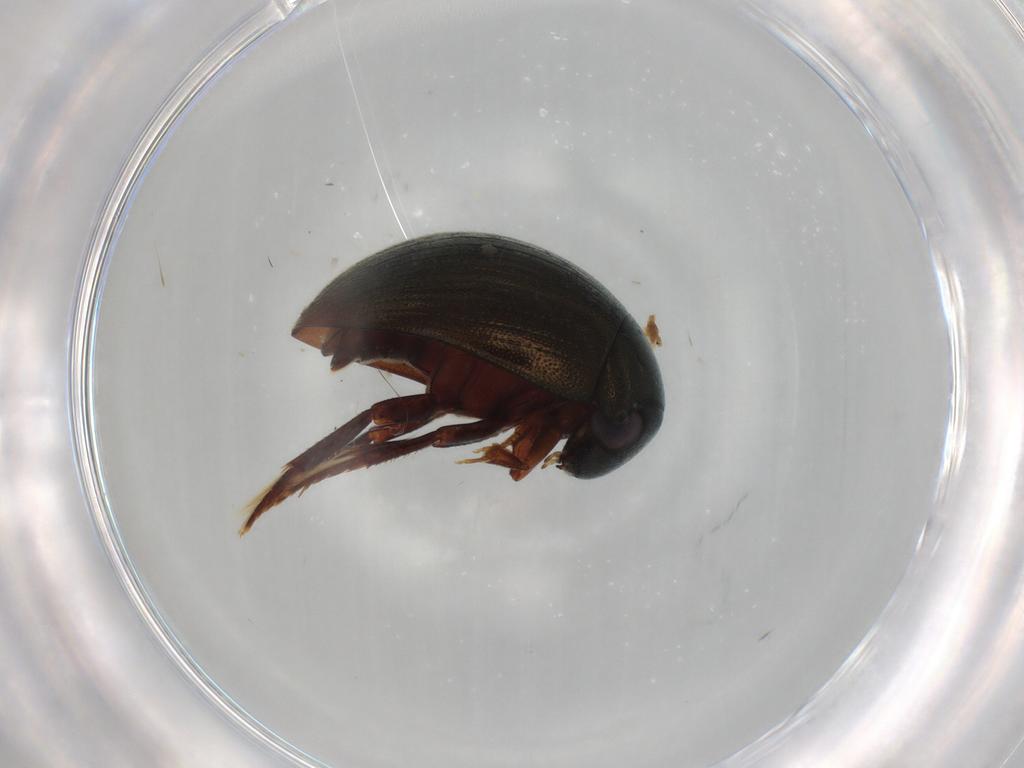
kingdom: Animalia
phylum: Arthropoda
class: Insecta
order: Coleoptera
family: Hydrophilidae
